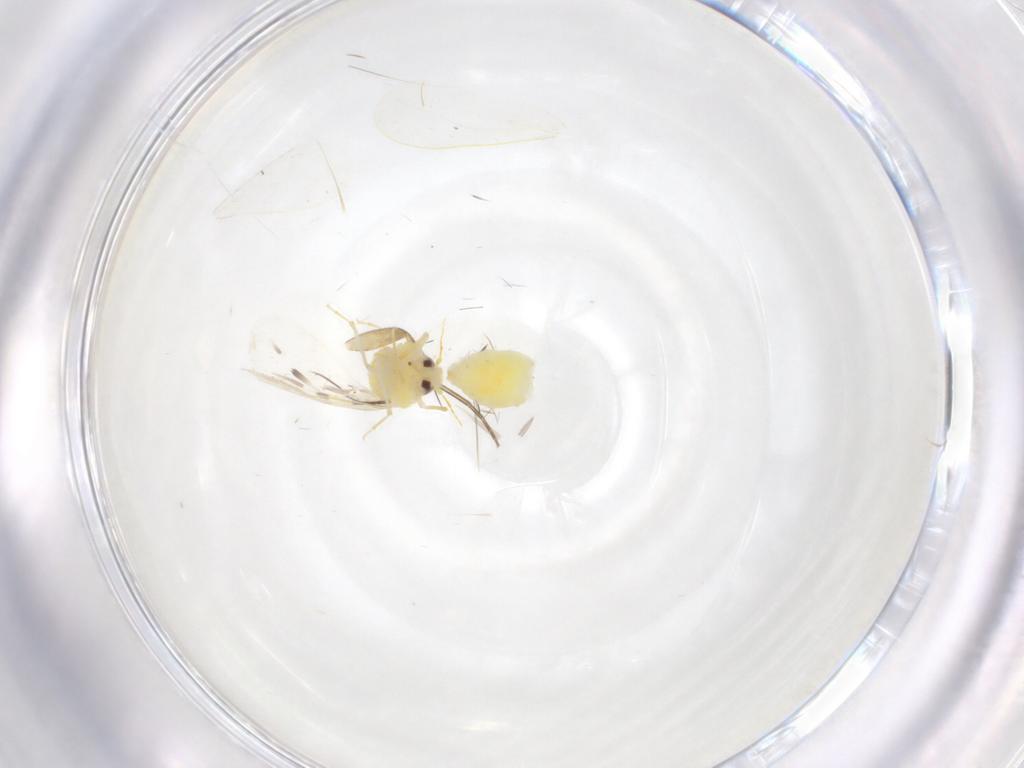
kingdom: Animalia
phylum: Arthropoda
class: Insecta
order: Hemiptera
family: Aleyrodidae
